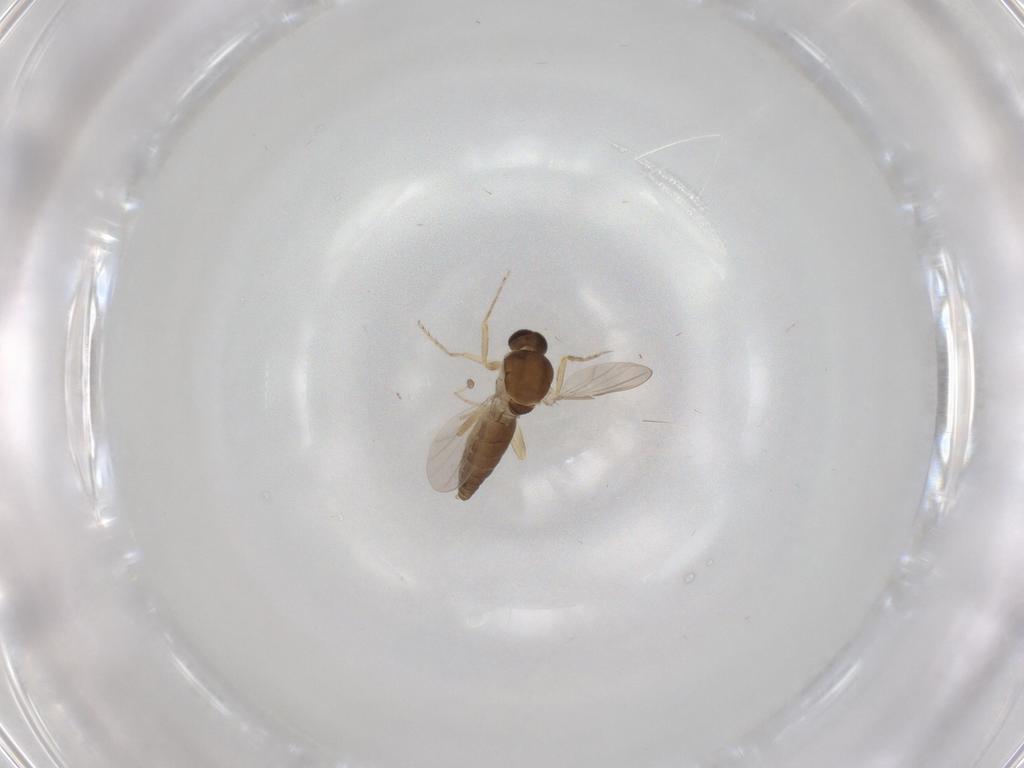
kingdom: Animalia
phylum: Arthropoda
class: Insecta
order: Diptera
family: Ceratopogonidae
